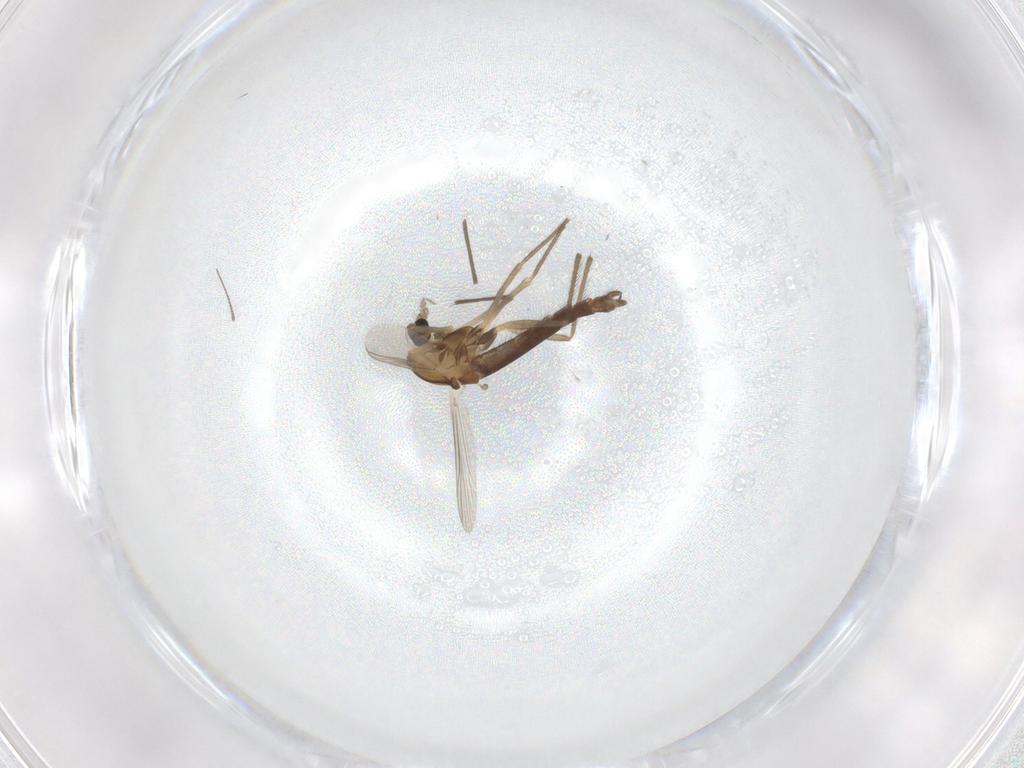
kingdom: Animalia
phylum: Arthropoda
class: Insecta
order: Diptera
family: Chironomidae
